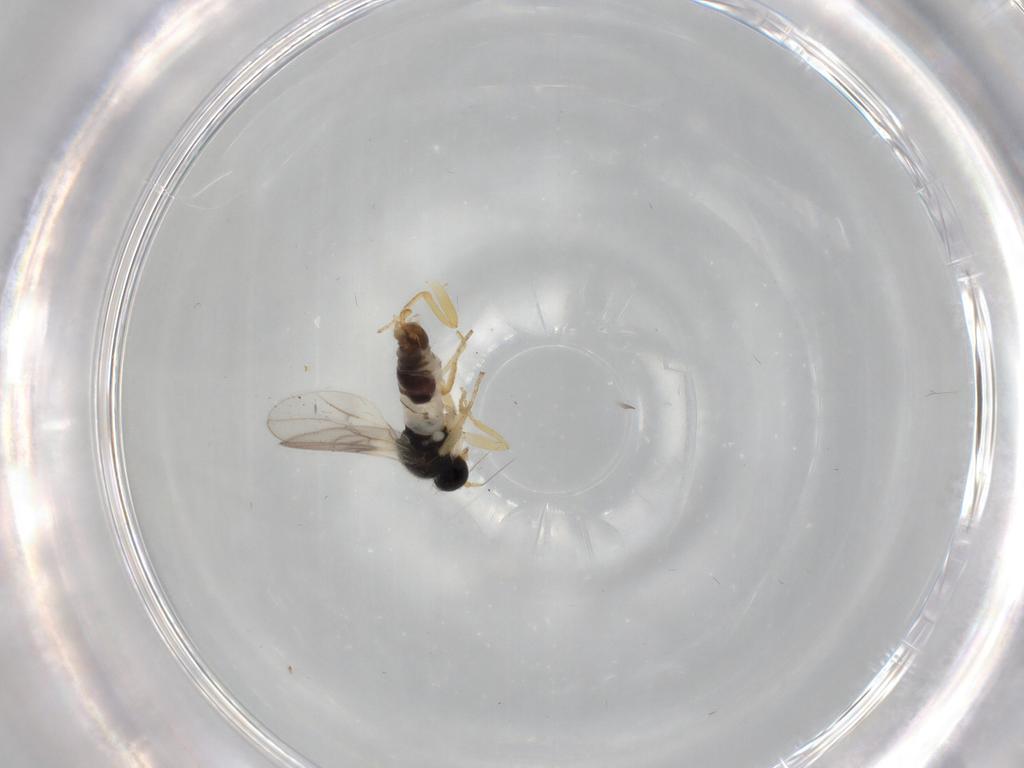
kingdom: Animalia
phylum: Arthropoda
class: Insecta
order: Diptera
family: Hybotidae
